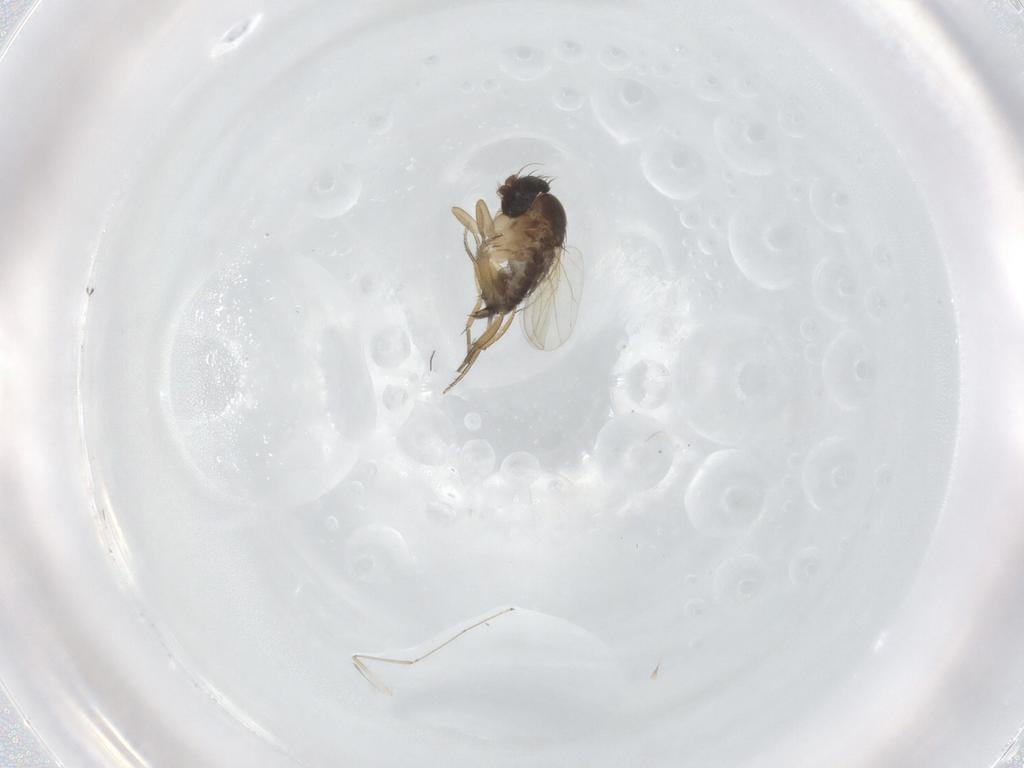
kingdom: Animalia
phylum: Arthropoda
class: Insecta
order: Diptera
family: Phoridae
